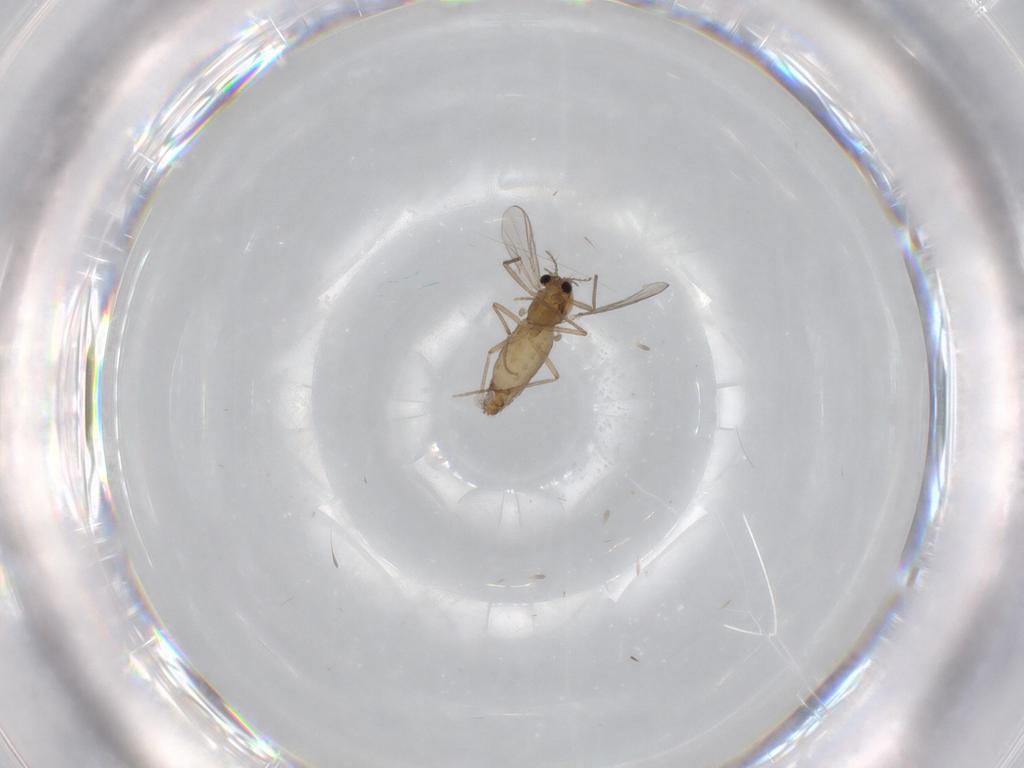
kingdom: Animalia
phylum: Arthropoda
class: Insecta
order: Diptera
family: Chironomidae
